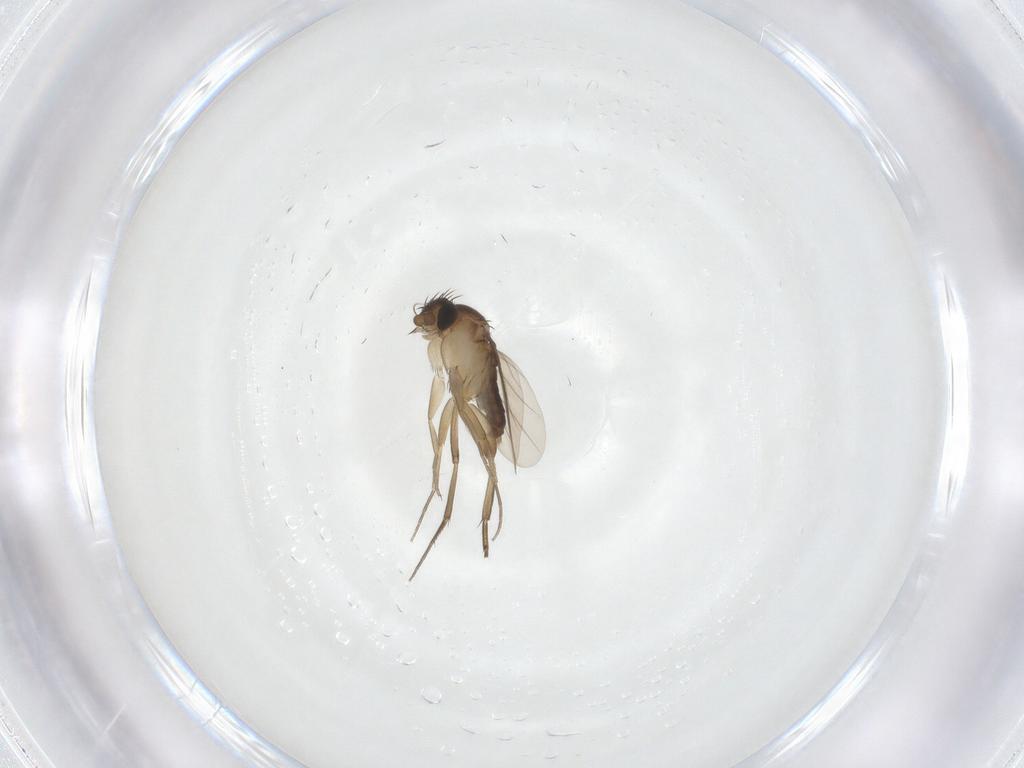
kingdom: Animalia
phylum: Arthropoda
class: Insecta
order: Diptera
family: Phoridae
